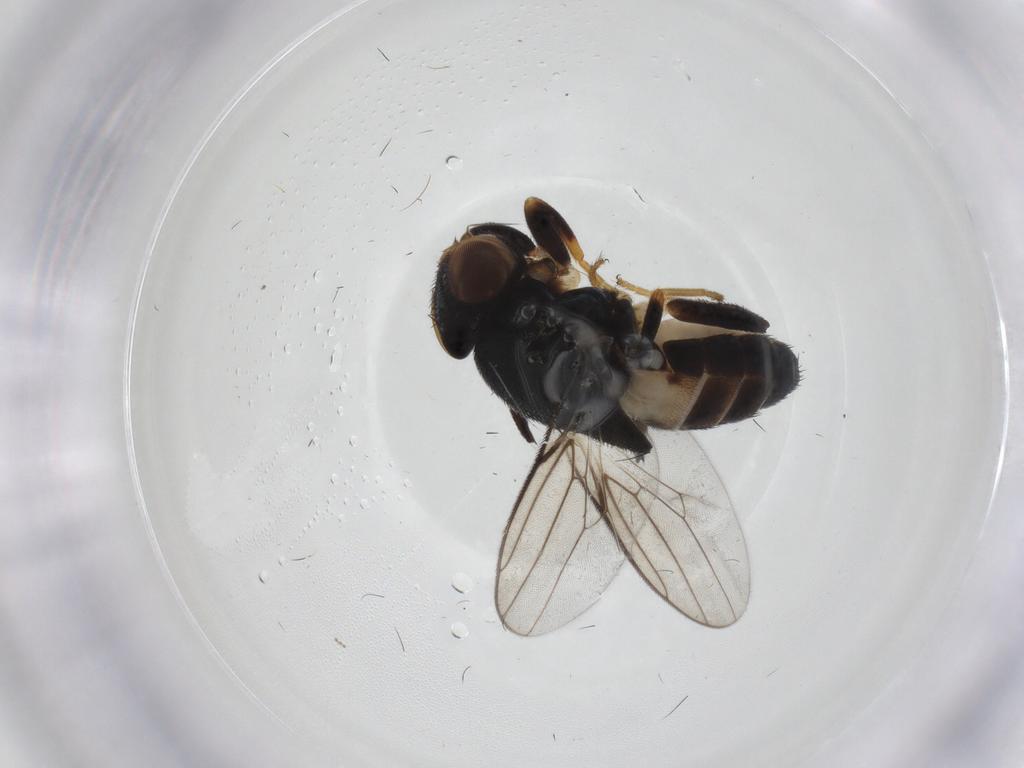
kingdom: Animalia
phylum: Arthropoda
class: Insecta
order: Diptera
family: Chloropidae
